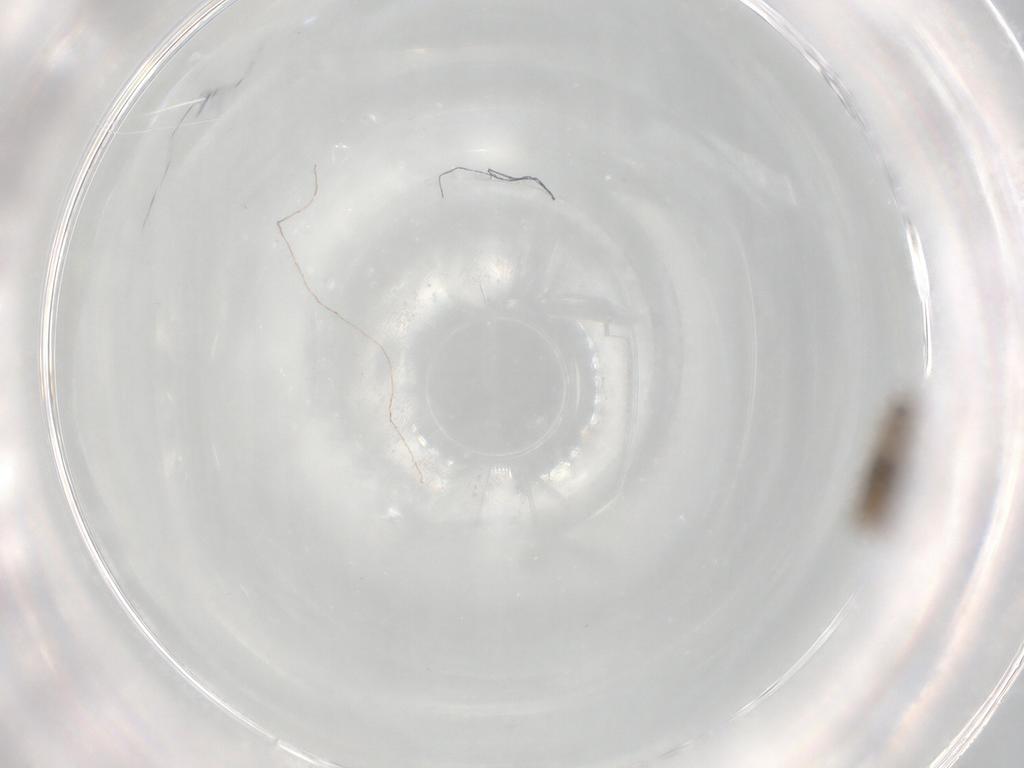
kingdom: Animalia
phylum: Arthropoda
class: Insecta
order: Diptera
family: Psychodidae
